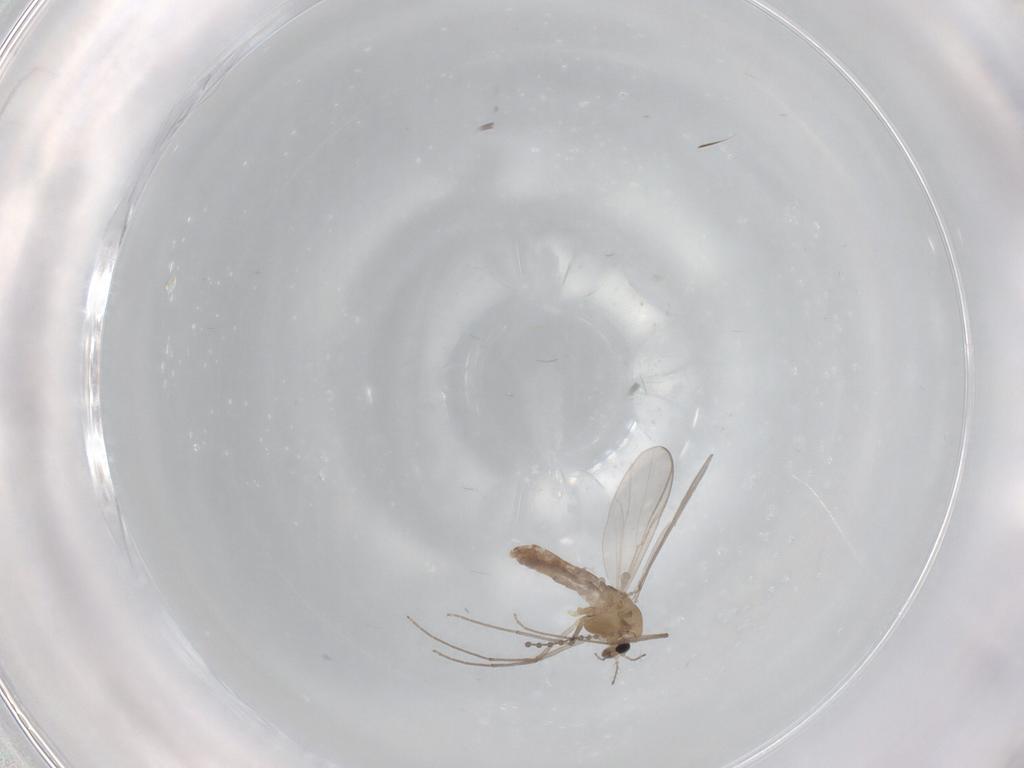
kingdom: Animalia
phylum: Arthropoda
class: Insecta
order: Diptera
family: Chironomidae
